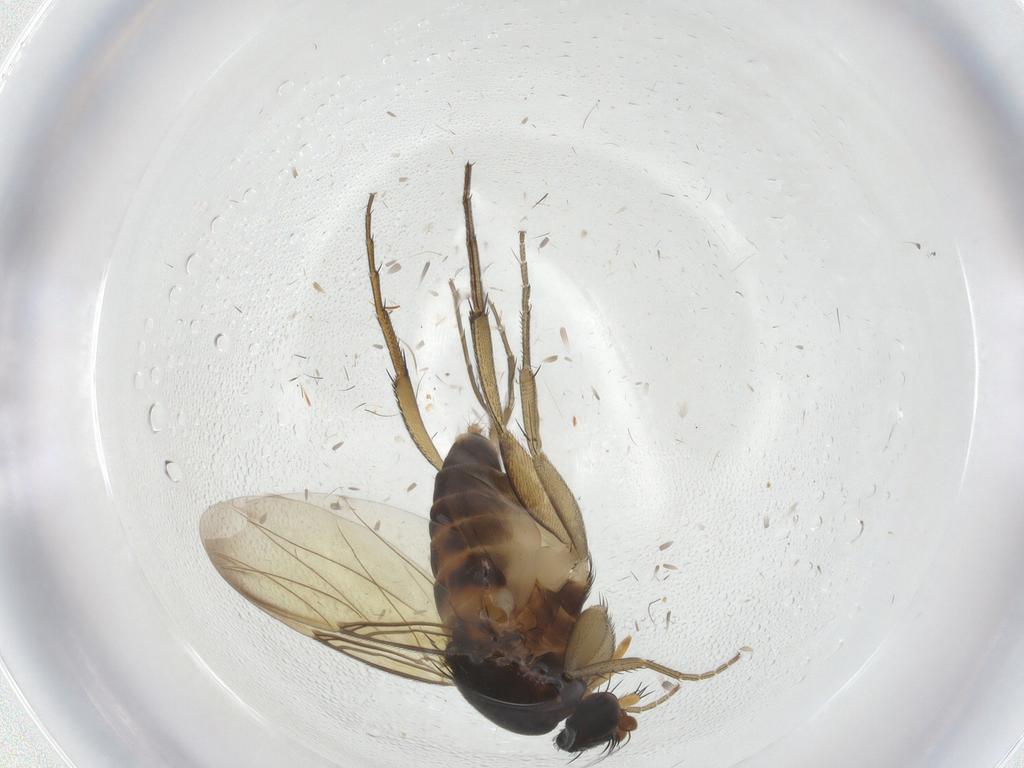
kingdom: Animalia
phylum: Arthropoda
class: Insecta
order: Diptera
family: Phoridae
